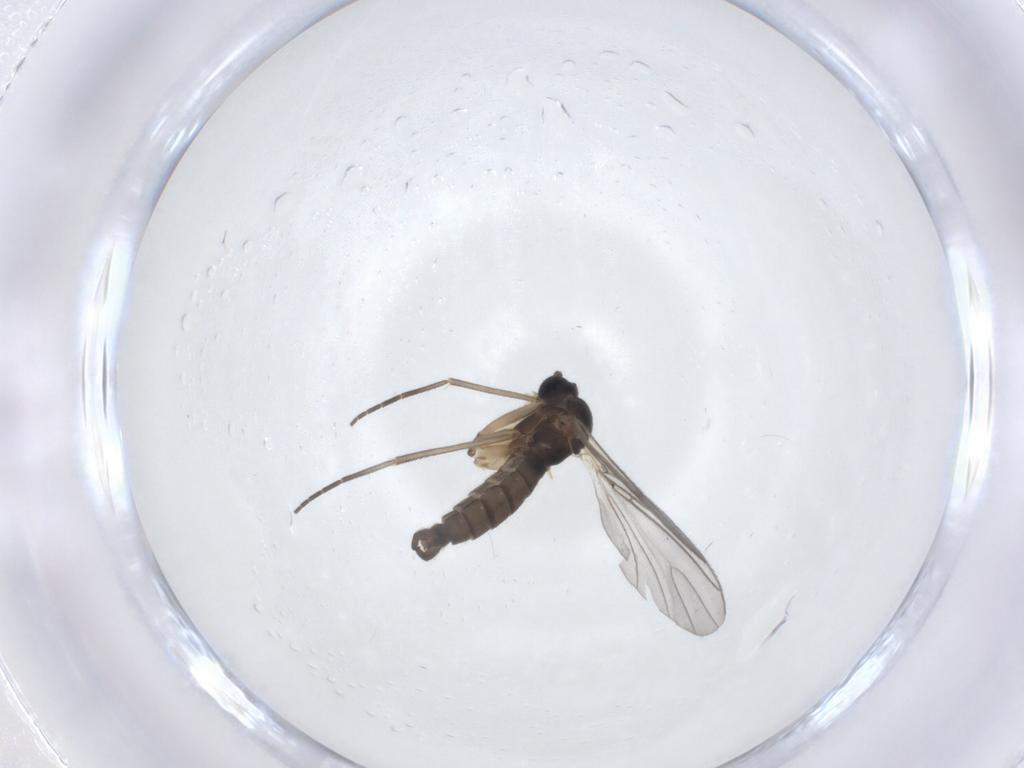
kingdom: Animalia
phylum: Arthropoda
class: Insecta
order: Diptera
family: Sciaridae
